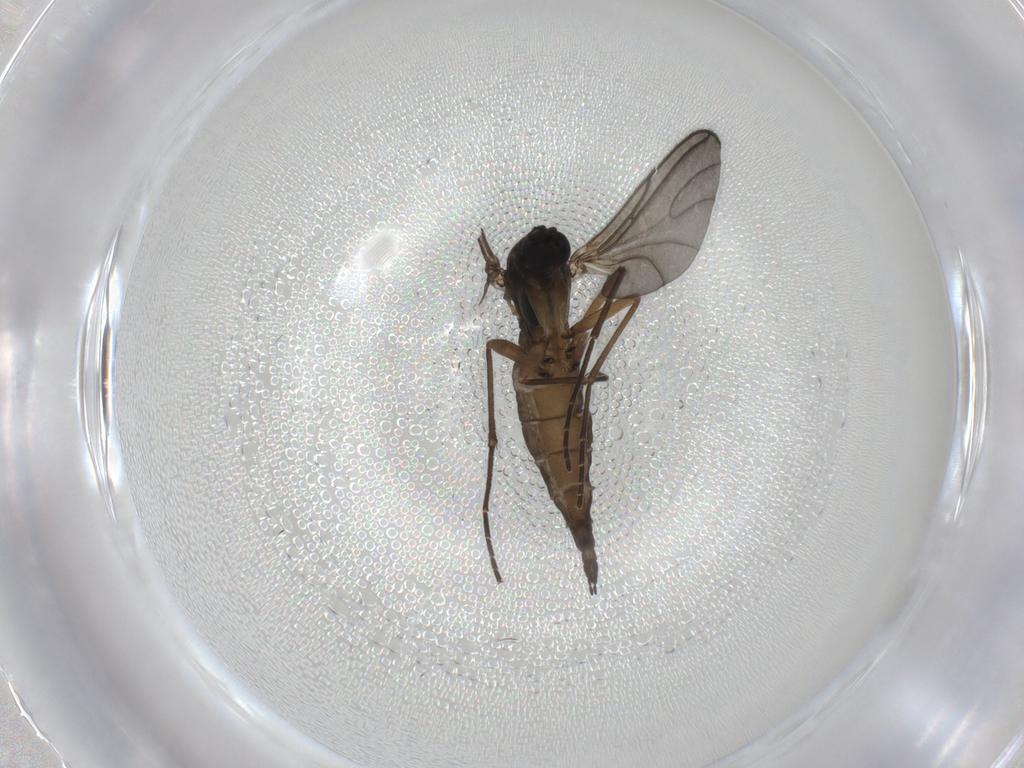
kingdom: Animalia
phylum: Arthropoda
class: Insecta
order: Diptera
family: Sciaridae
